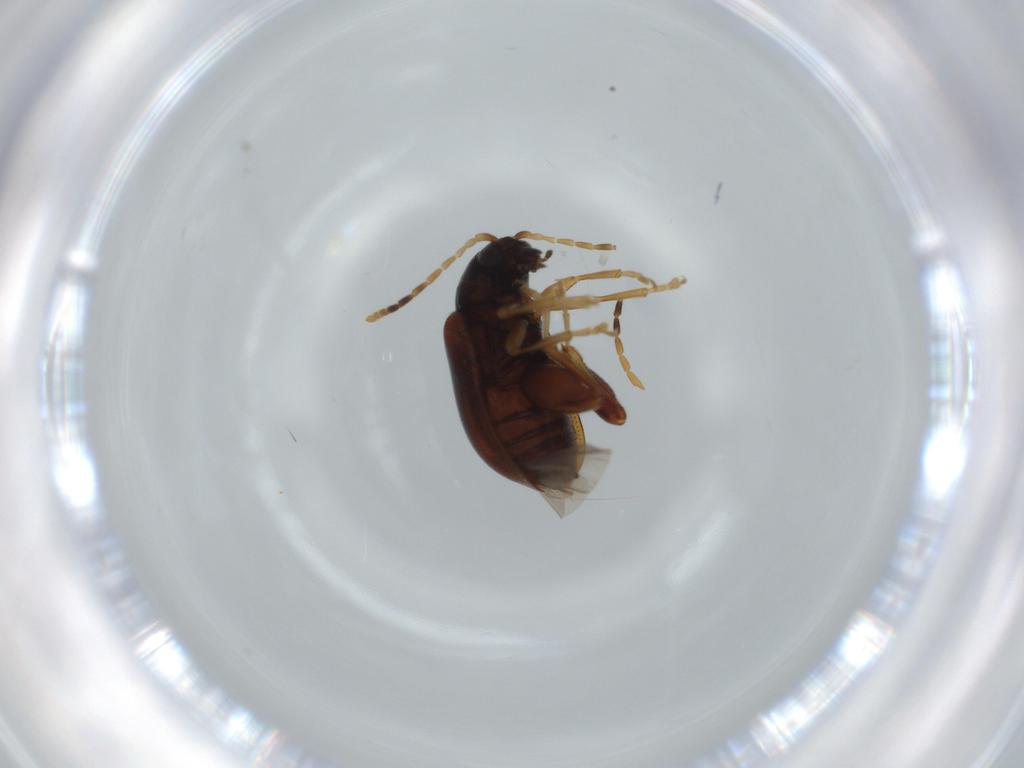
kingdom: Animalia
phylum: Arthropoda
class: Insecta
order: Coleoptera
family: Chrysomelidae
